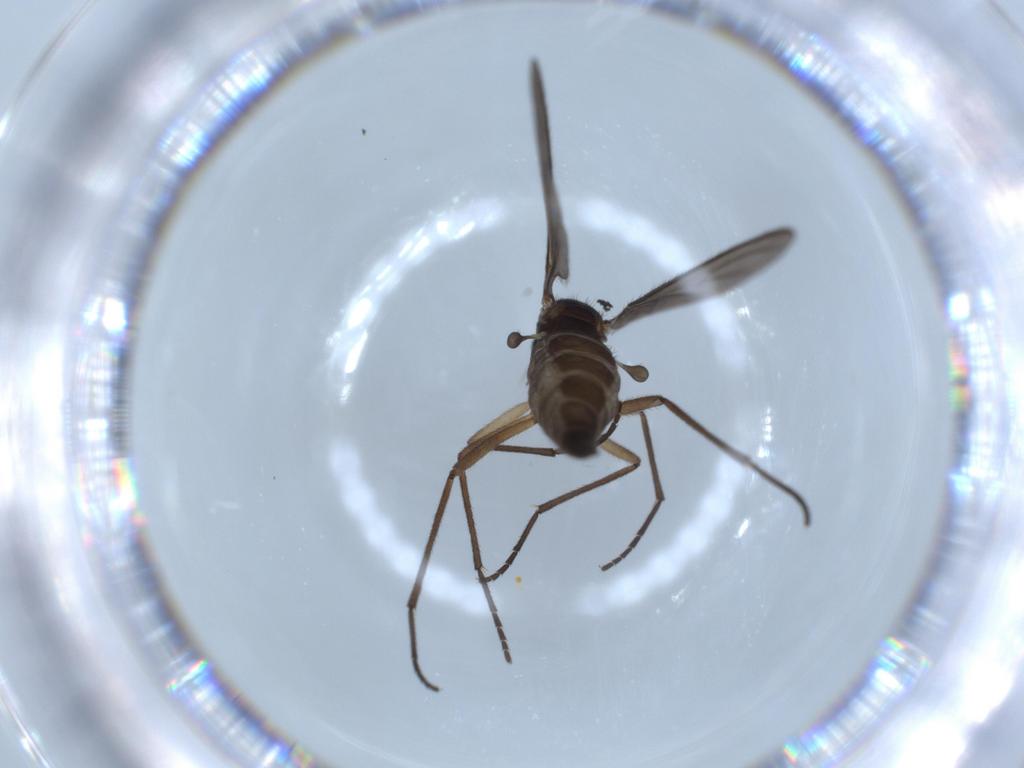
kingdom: Animalia
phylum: Arthropoda
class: Insecta
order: Diptera
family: Sciaridae
